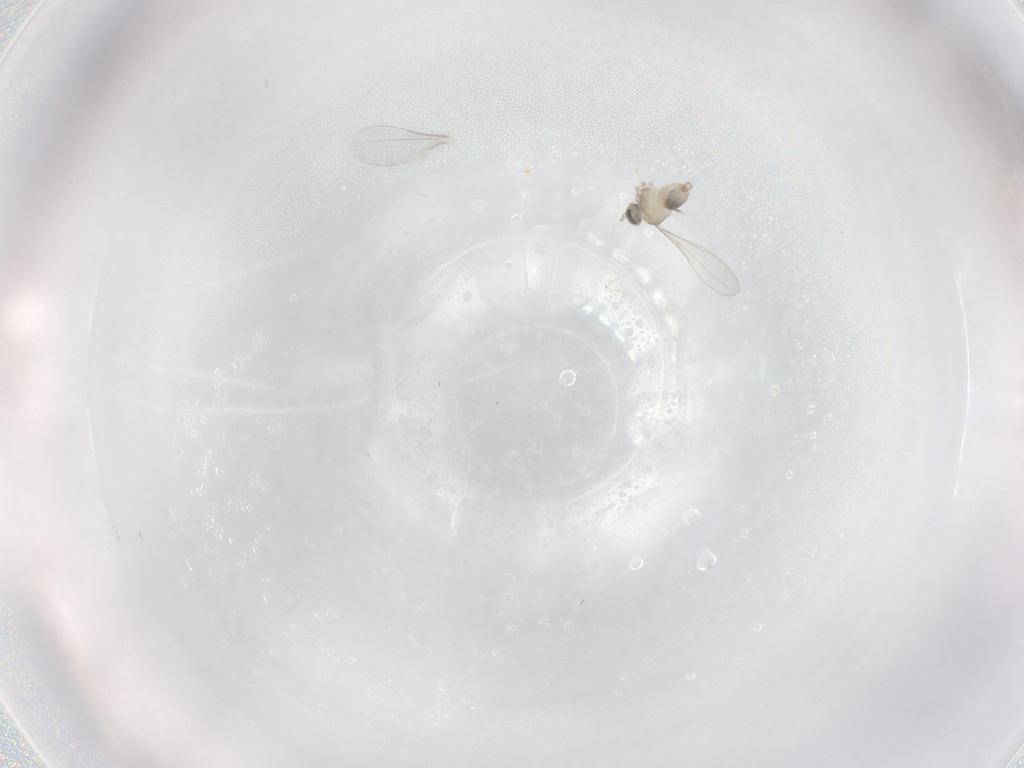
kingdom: Animalia
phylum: Arthropoda
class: Insecta
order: Diptera
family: Cecidomyiidae
